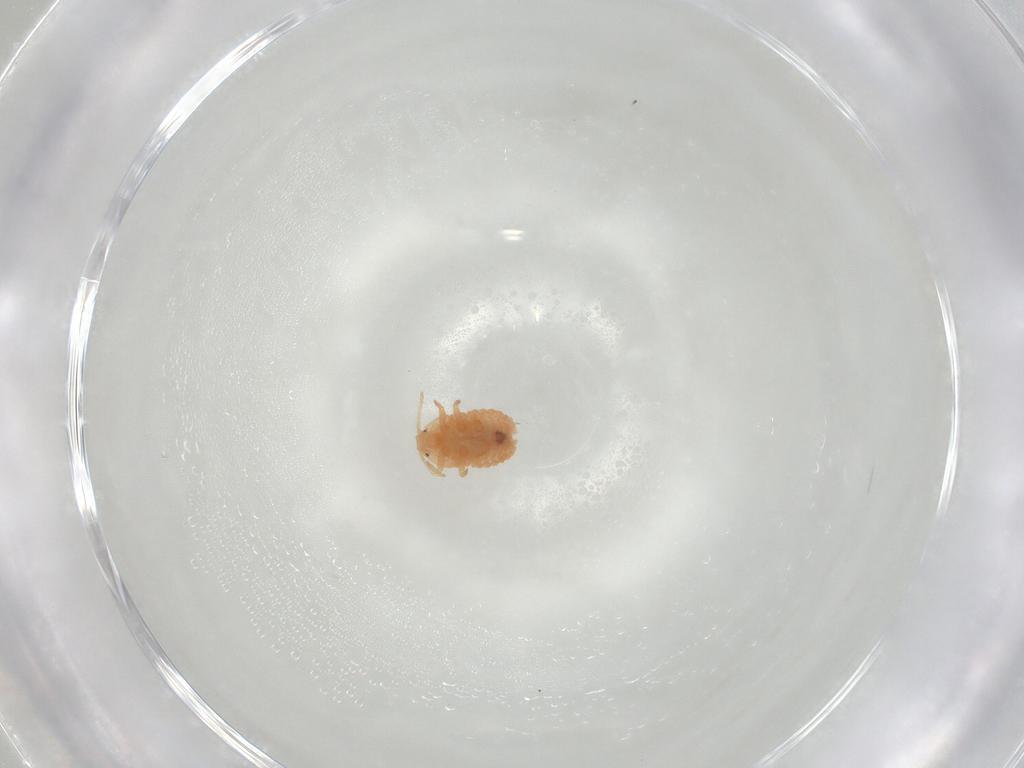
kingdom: Animalia
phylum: Arthropoda
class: Insecta
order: Hemiptera
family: Pseudococcidae
